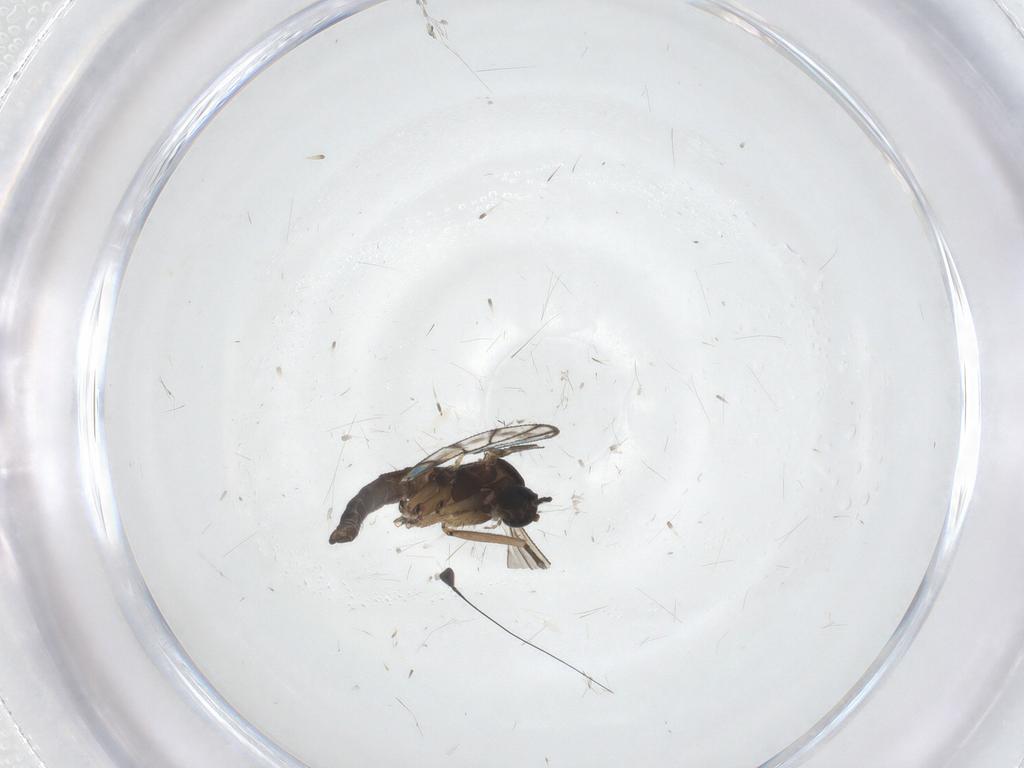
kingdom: Animalia
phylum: Arthropoda
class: Insecta
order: Diptera
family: Sciaridae
